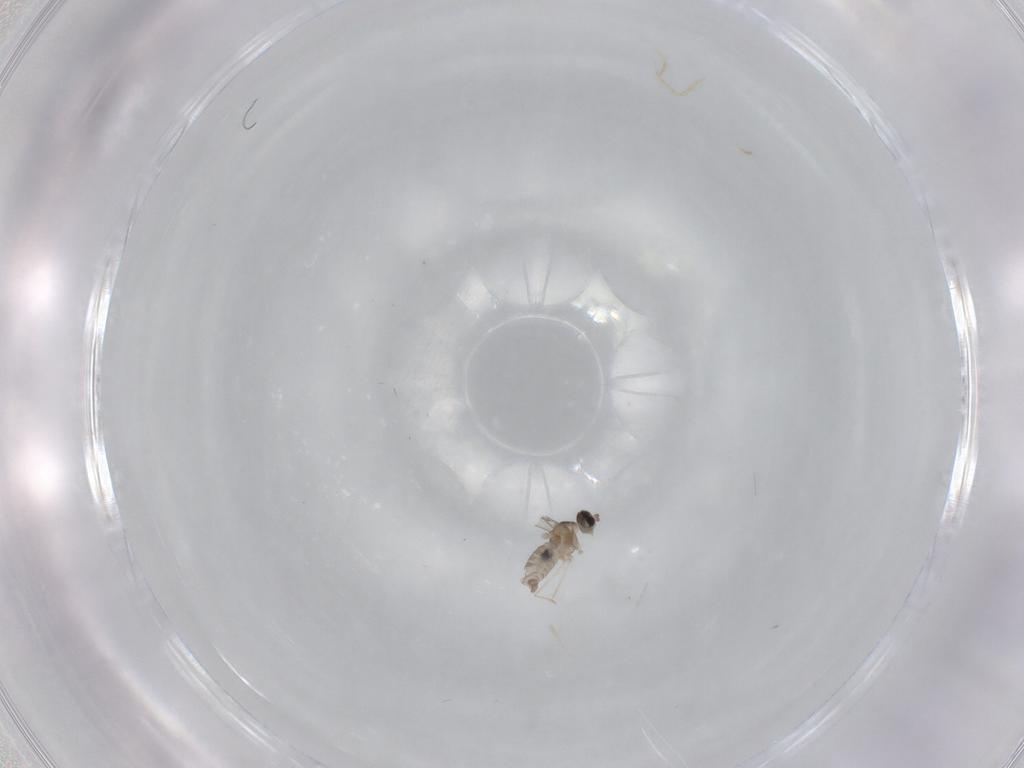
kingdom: Animalia
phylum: Arthropoda
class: Insecta
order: Diptera
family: Cecidomyiidae
